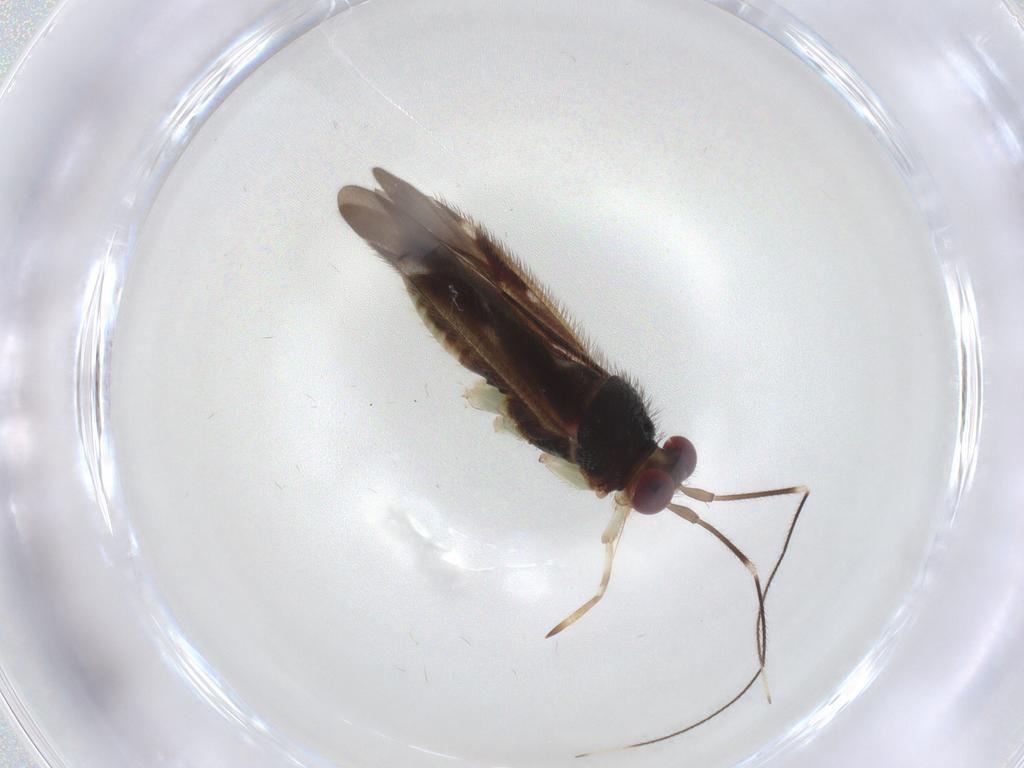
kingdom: Animalia
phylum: Arthropoda
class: Insecta
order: Hemiptera
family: Miridae
